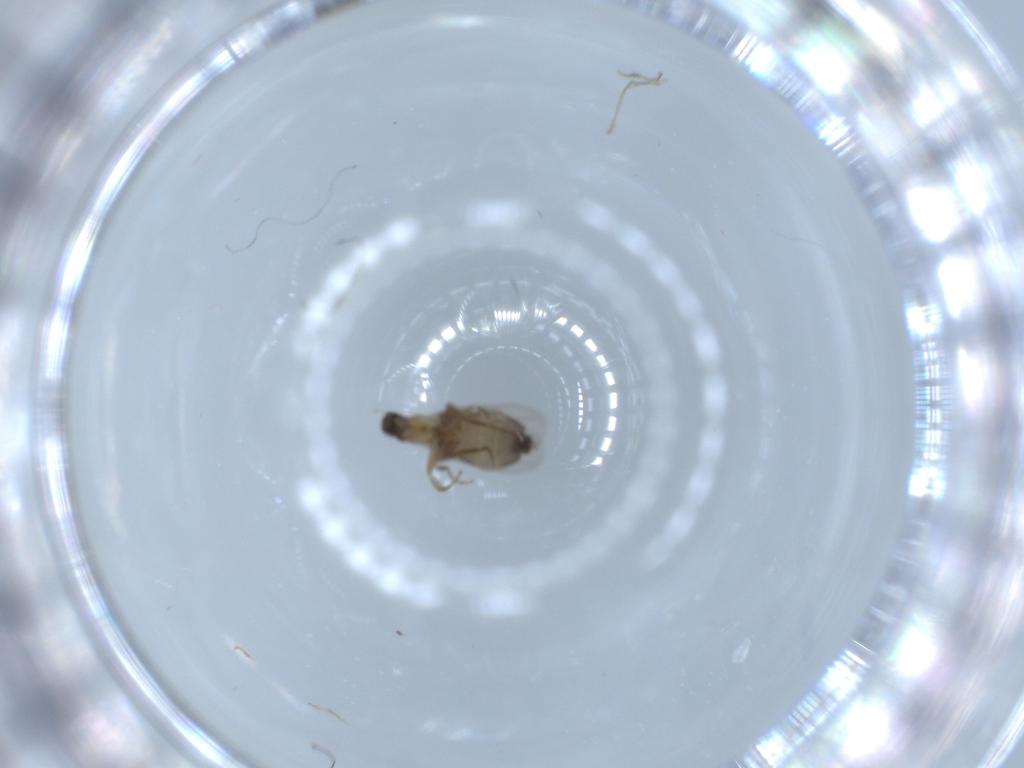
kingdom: Animalia
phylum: Arthropoda
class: Insecta
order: Diptera
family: Phoridae
